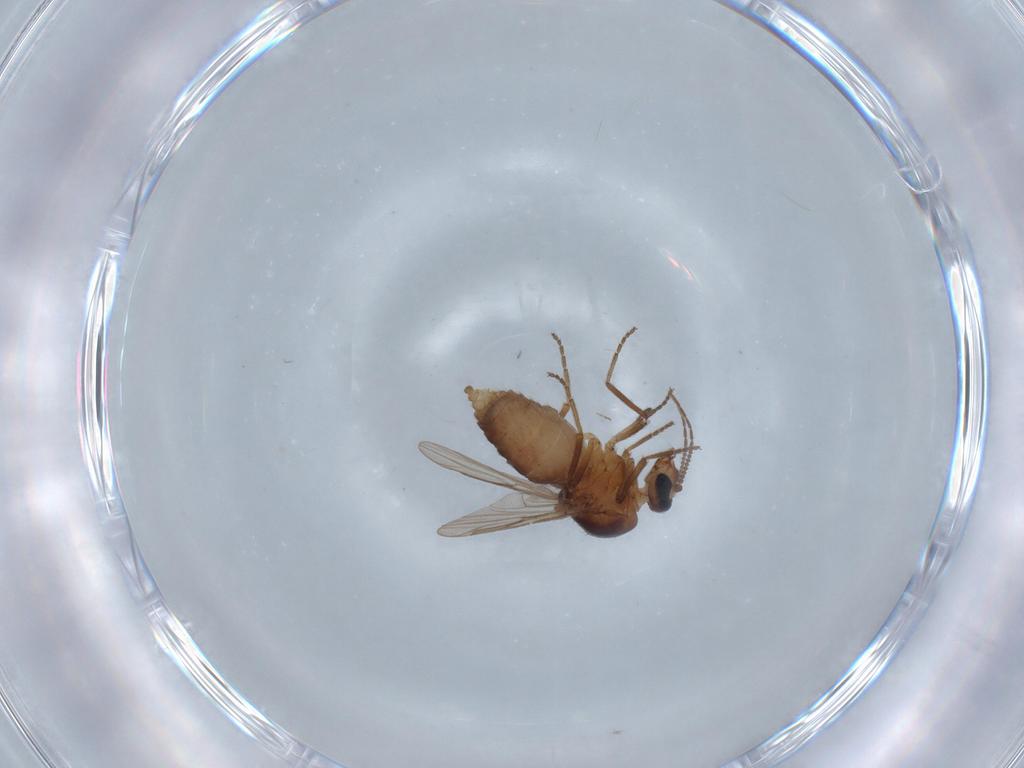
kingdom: Animalia
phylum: Arthropoda
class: Insecta
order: Diptera
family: Ceratopogonidae
